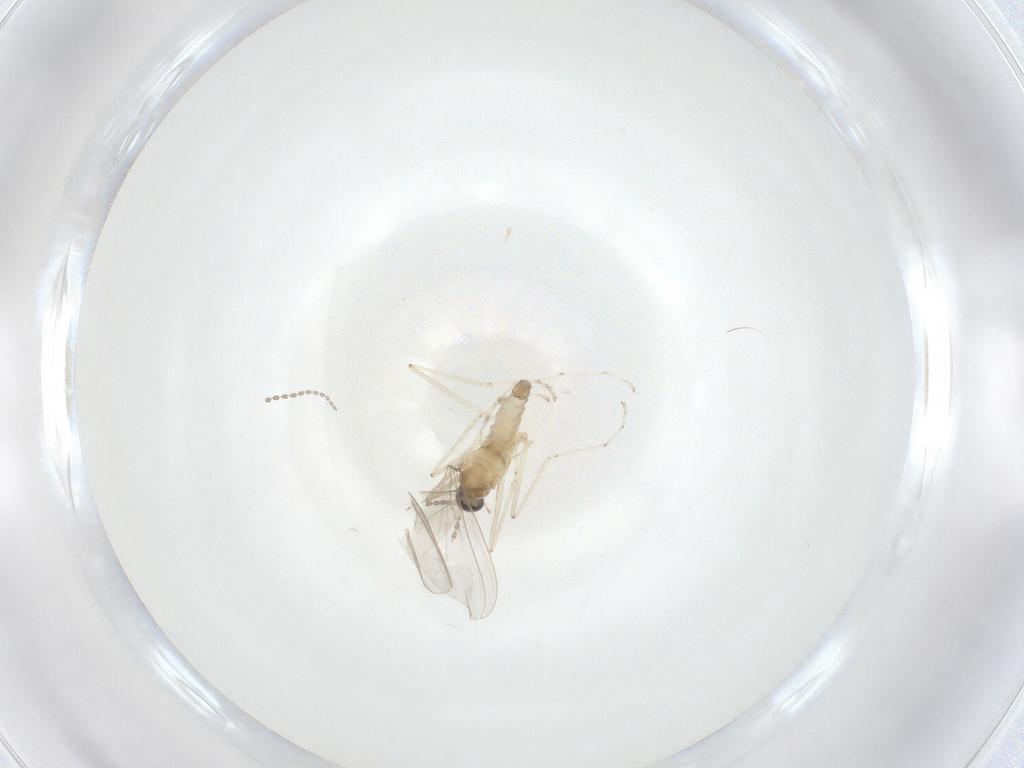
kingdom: Animalia
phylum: Arthropoda
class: Insecta
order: Diptera
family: Cecidomyiidae
